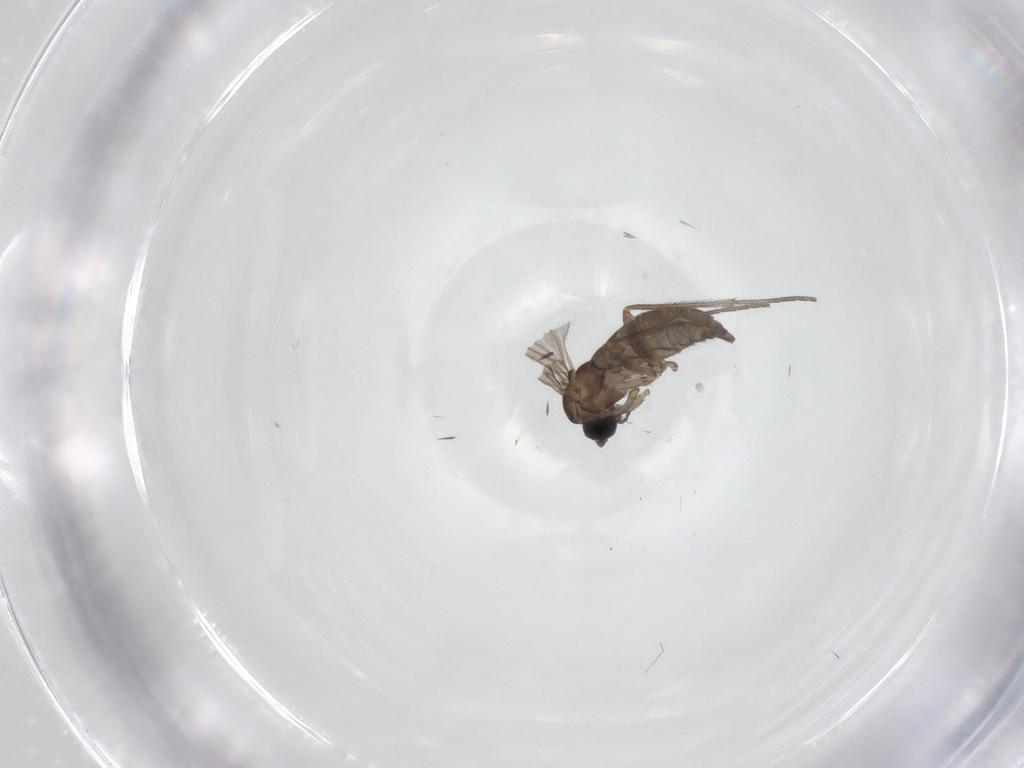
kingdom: Animalia
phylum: Arthropoda
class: Insecta
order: Diptera
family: Sciaridae
